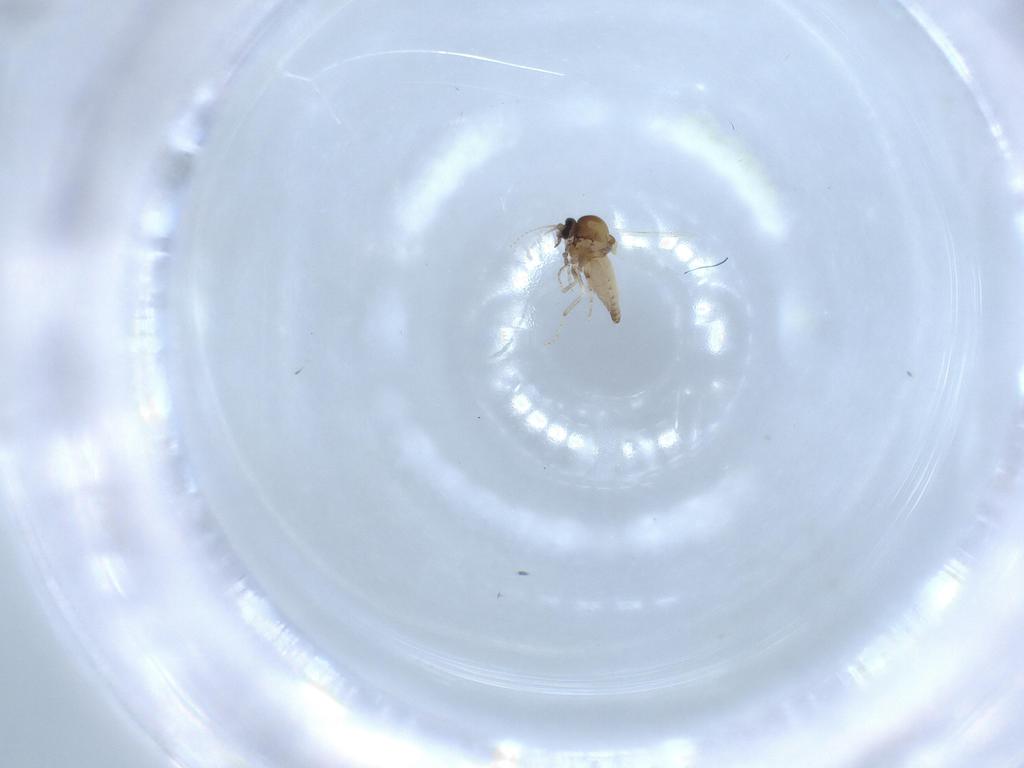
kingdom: Animalia
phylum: Arthropoda
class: Insecta
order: Diptera
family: Ceratopogonidae
